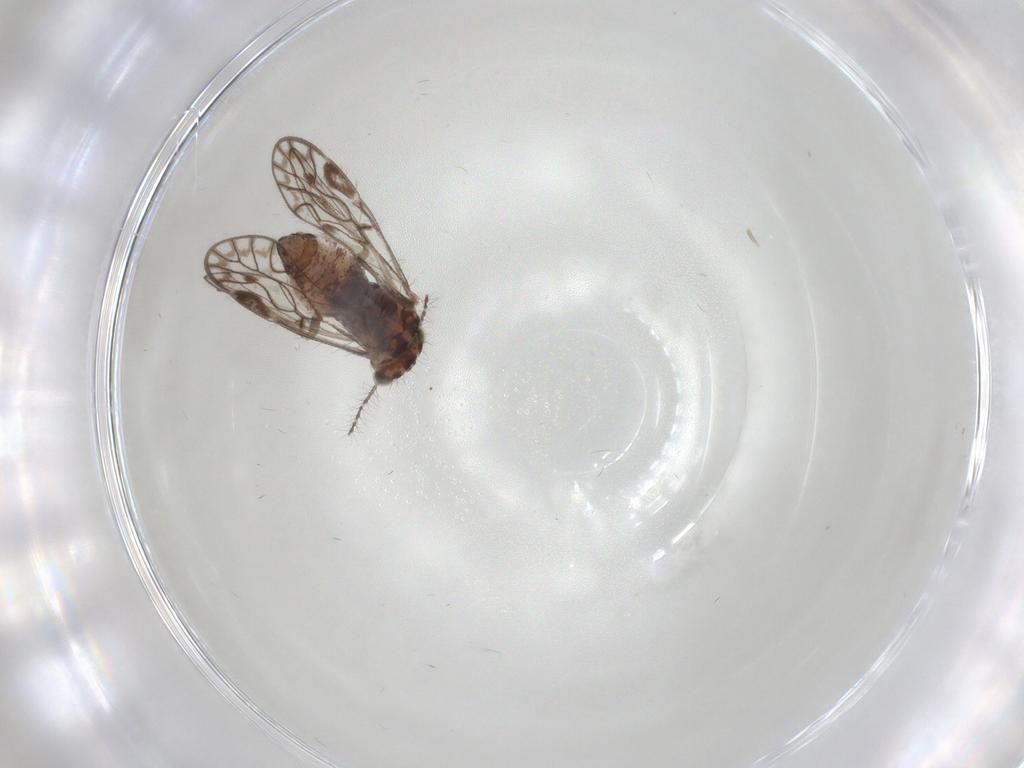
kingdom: Animalia
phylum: Arthropoda
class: Insecta
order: Psocodea
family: Psocidae
